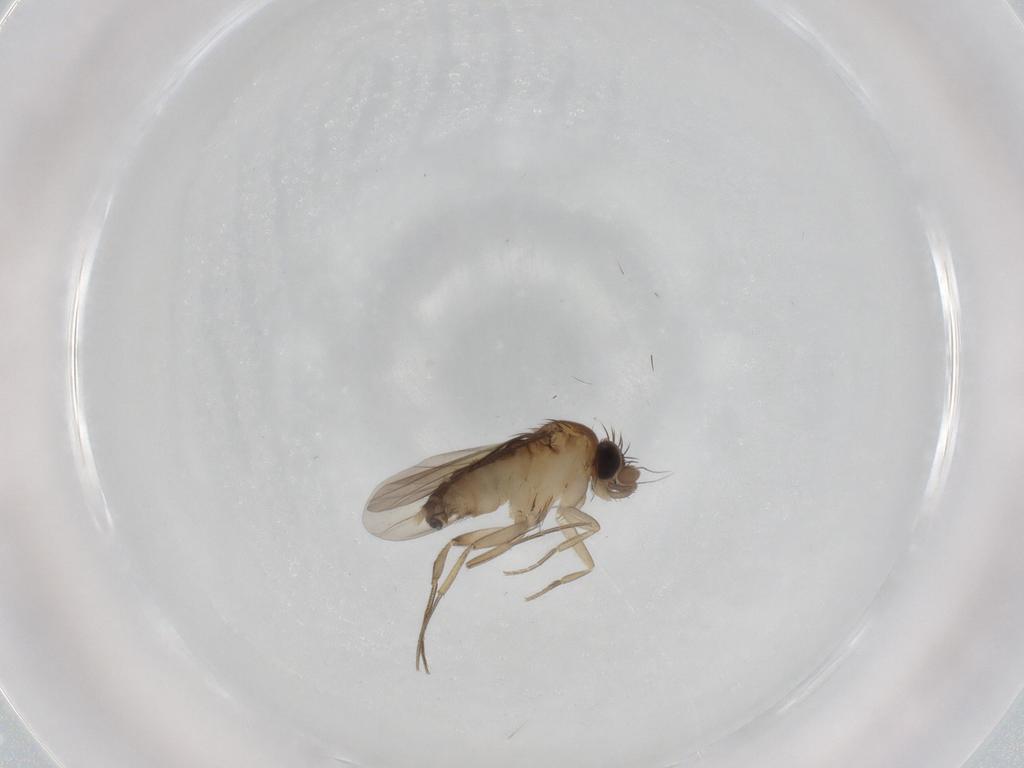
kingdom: Animalia
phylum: Arthropoda
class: Insecta
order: Diptera
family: Phoridae
